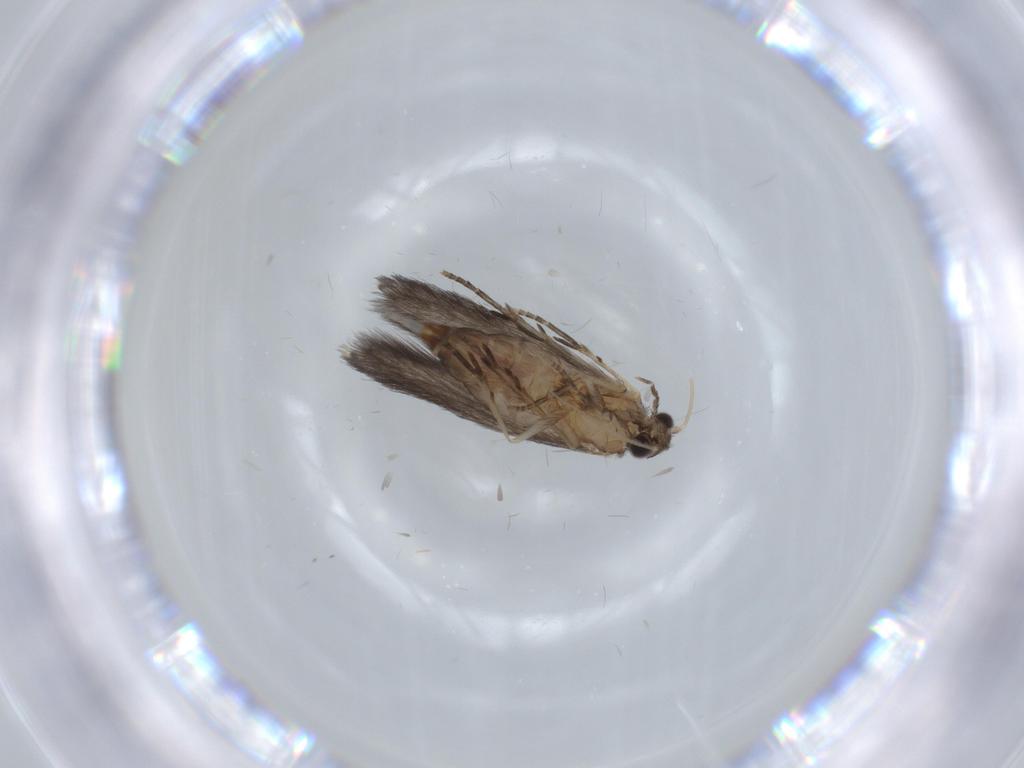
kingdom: Animalia
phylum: Arthropoda
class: Insecta
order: Trichoptera
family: Hydroptilidae
